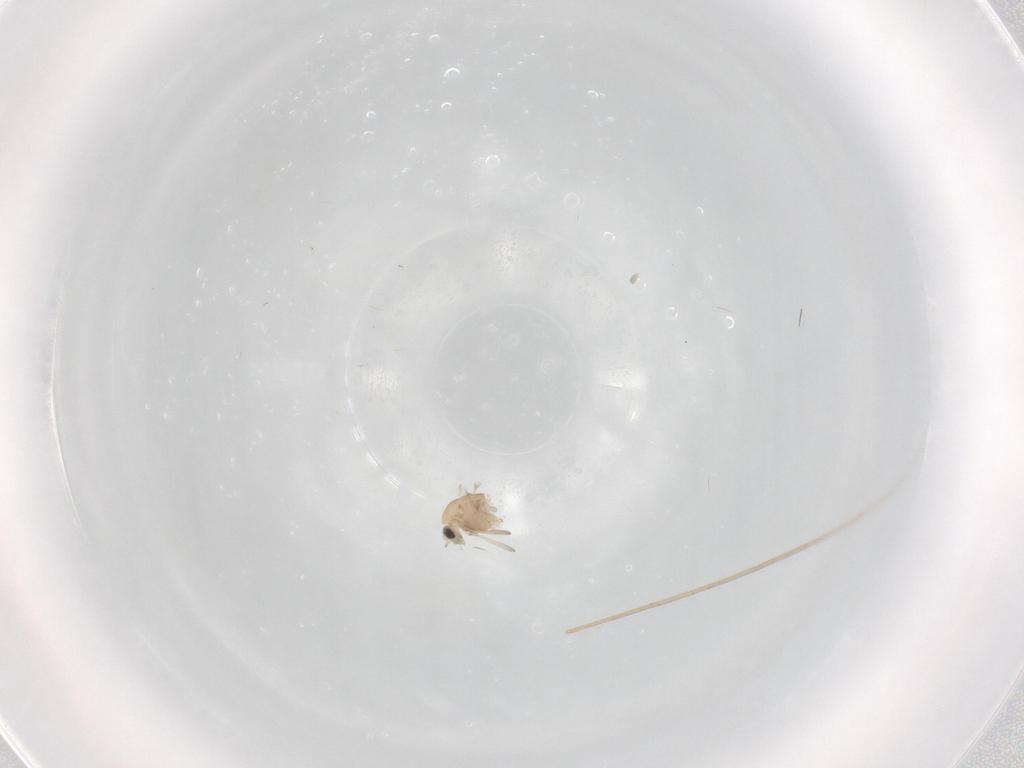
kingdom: Animalia
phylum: Arthropoda
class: Insecta
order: Diptera
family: Chironomidae
